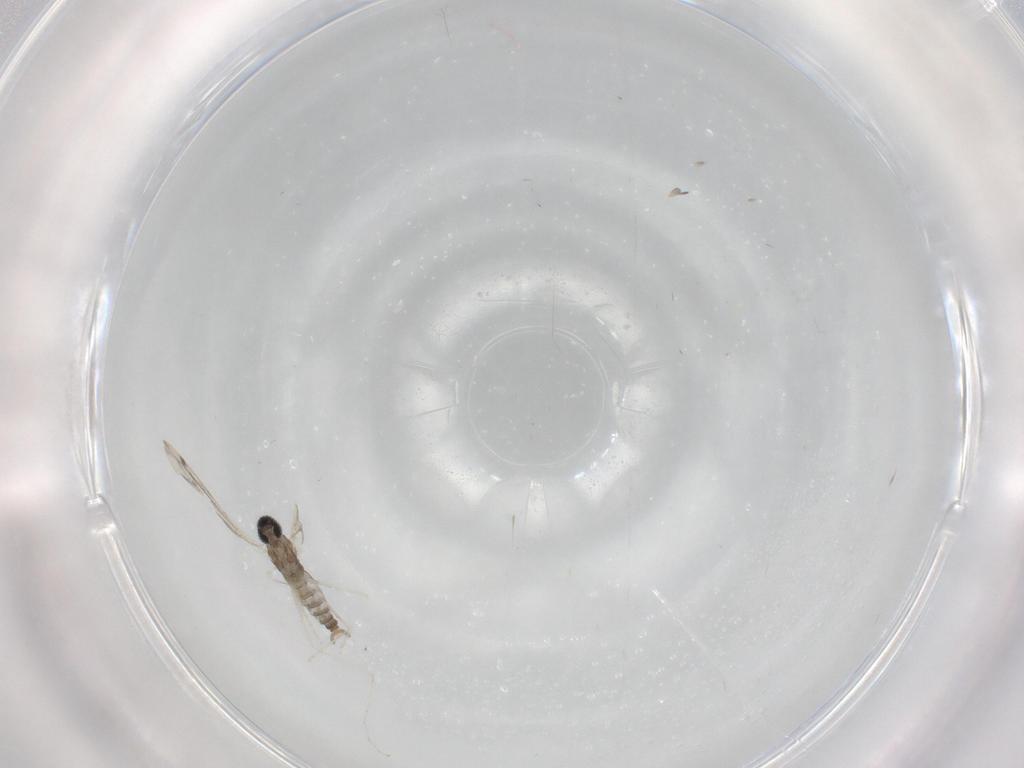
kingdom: Animalia
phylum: Arthropoda
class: Insecta
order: Diptera
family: Cecidomyiidae
